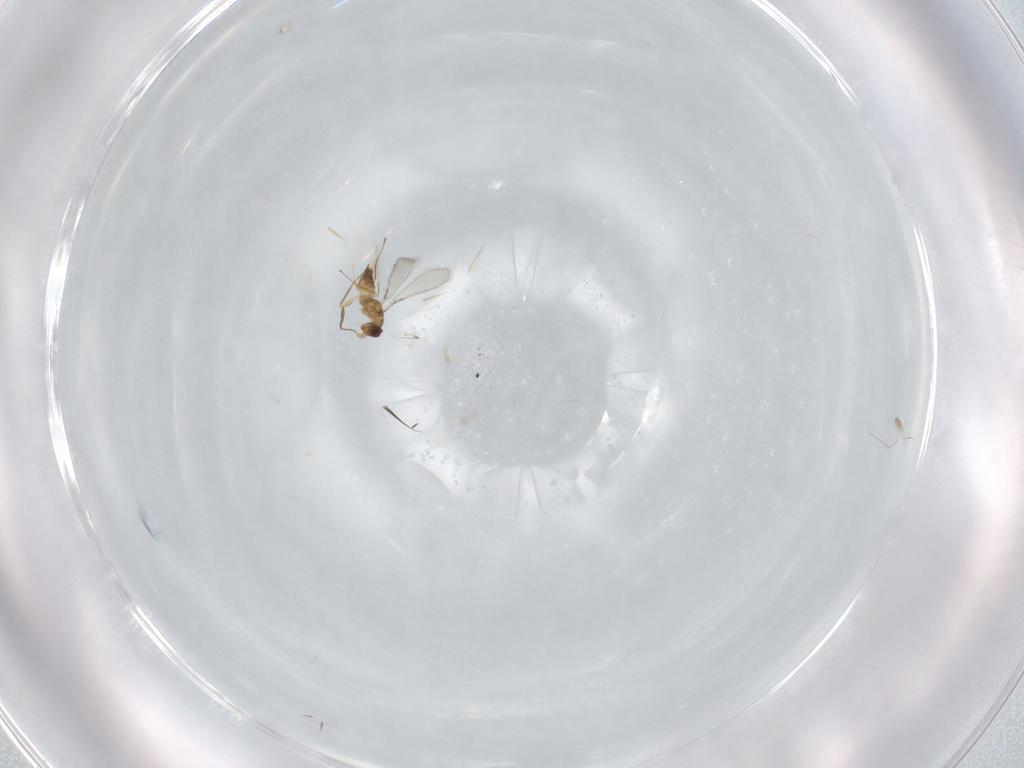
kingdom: Animalia
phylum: Arthropoda
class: Insecta
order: Hymenoptera
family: Mymaridae
